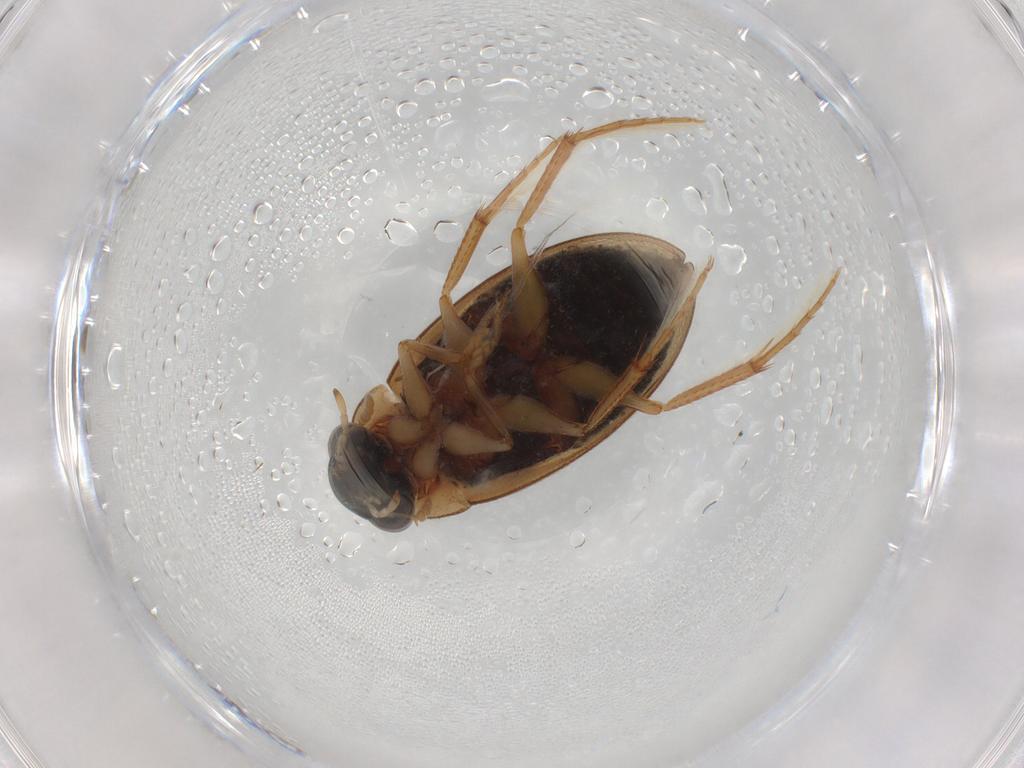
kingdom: Animalia
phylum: Arthropoda
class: Insecta
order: Coleoptera
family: Hydrophilidae
